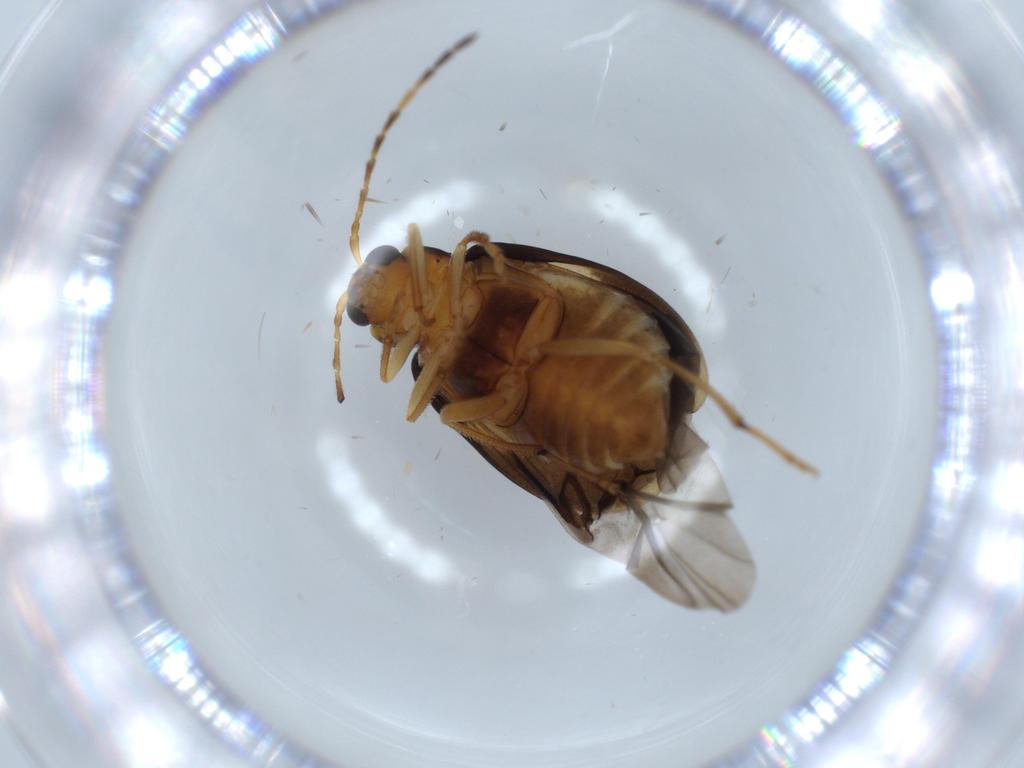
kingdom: Animalia
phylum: Arthropoda
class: Insecta
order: Coleoptera
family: Chrysomelidae
